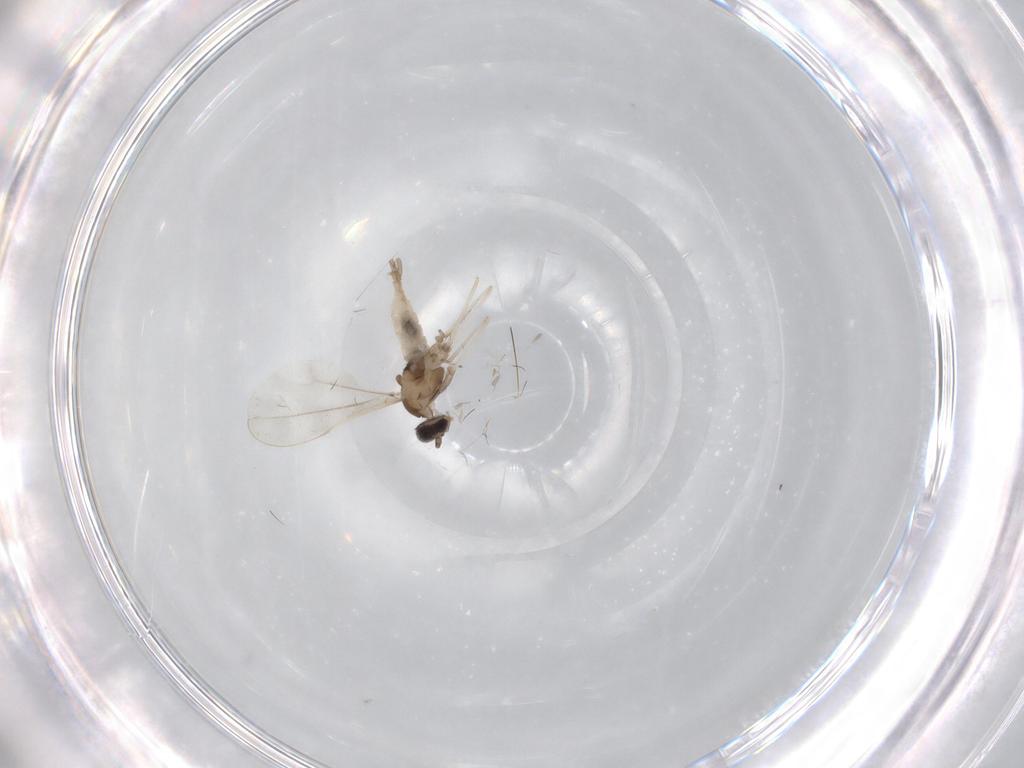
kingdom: Animalia
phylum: Arthropoda
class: Insecta
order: Diptera
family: Cecidomyiidae
